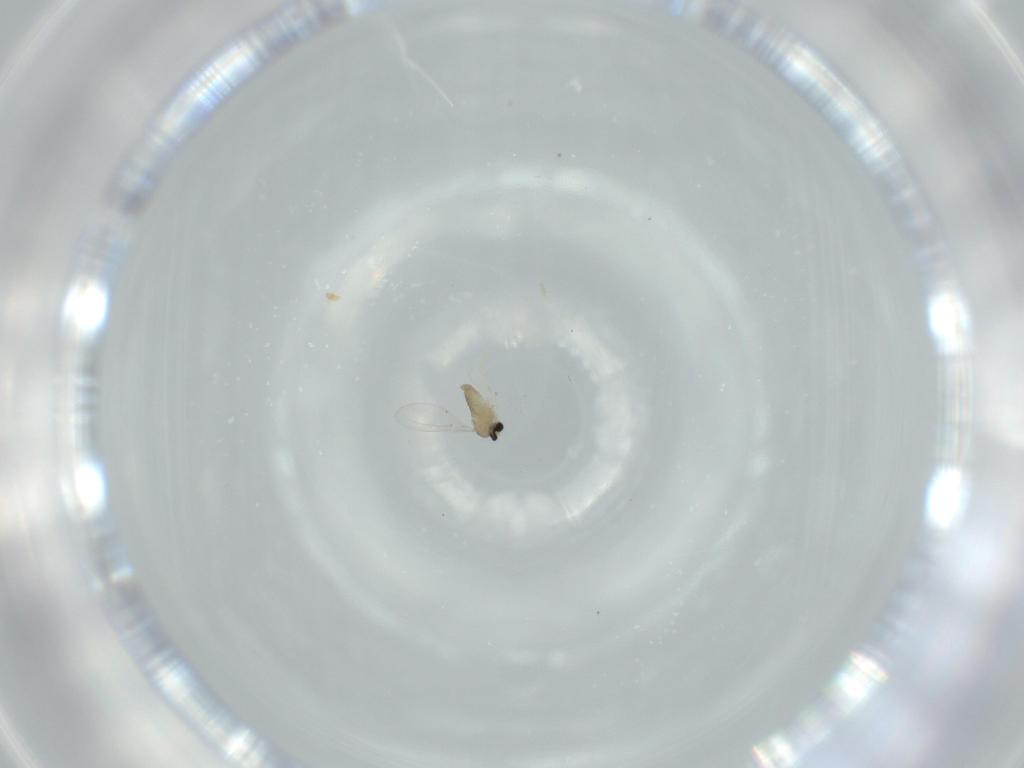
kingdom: Animalia
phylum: Arthropoda
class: Insecta
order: Diptera
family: Cecidomyiidae
